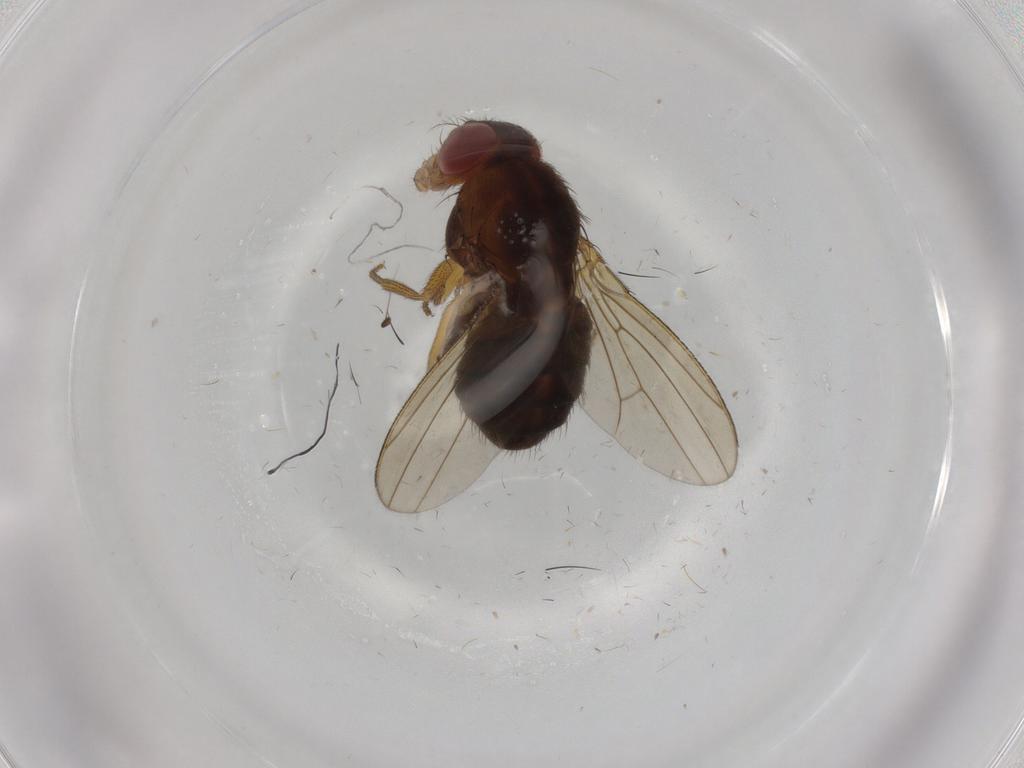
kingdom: Animalia
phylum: Arthropoda
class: Insecta
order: Diptera
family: Drosophilidae
